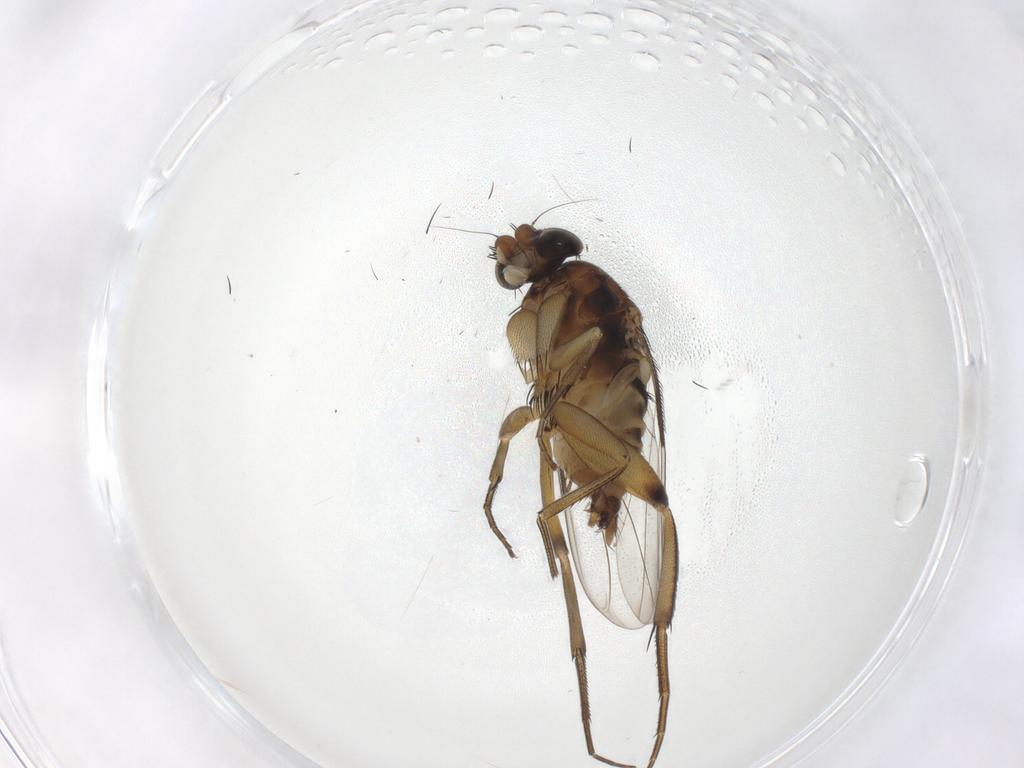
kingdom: Animalia
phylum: Arthropoda
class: Insecta
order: Diptera
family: Phoridae
